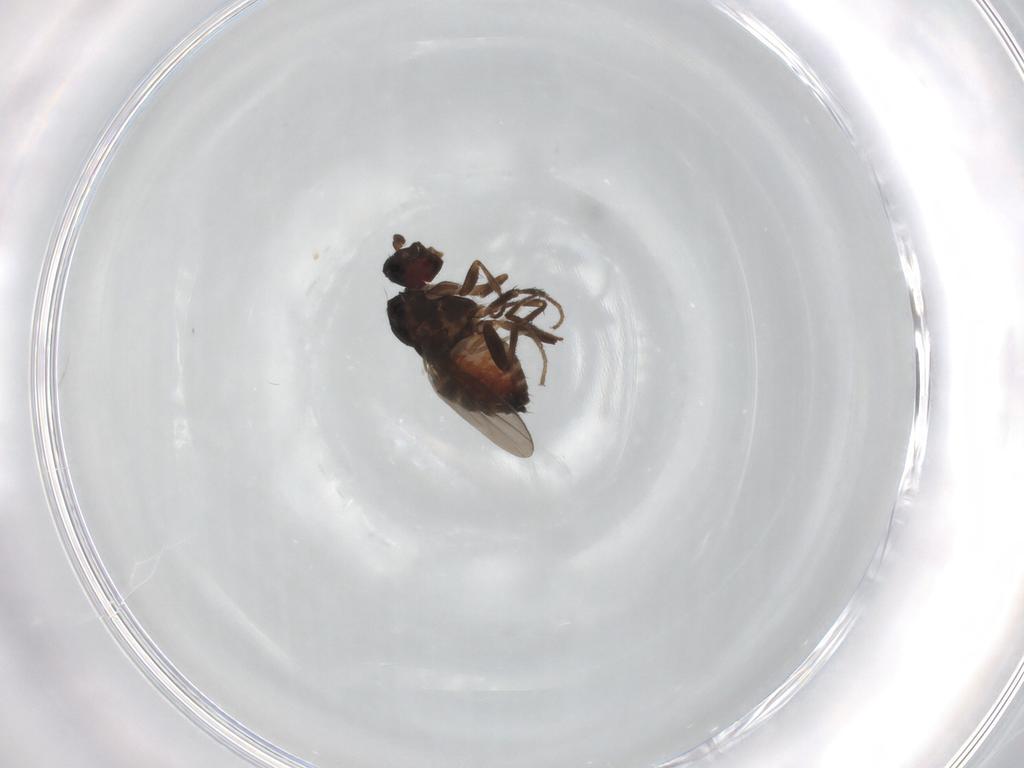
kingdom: Animalia
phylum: Arthropoda
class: Insecta
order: Diptera
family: Sphaeroceridae
